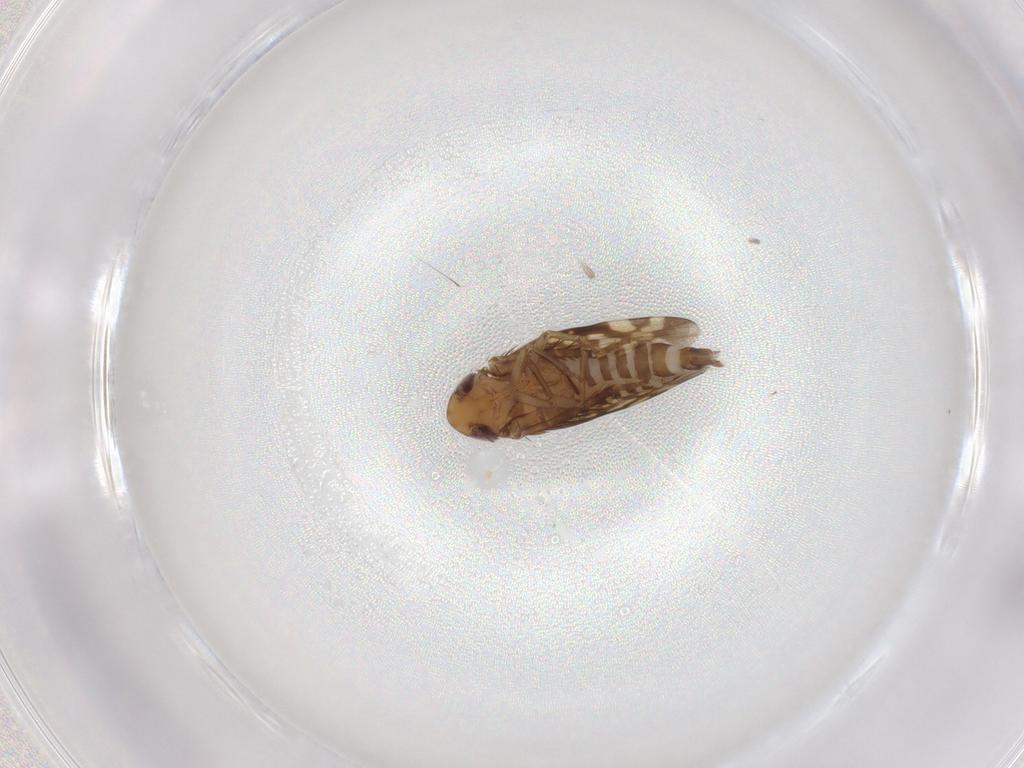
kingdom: Animalia
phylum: Arthropoda
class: Insecta
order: Hemiptera
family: Cicadellidae
